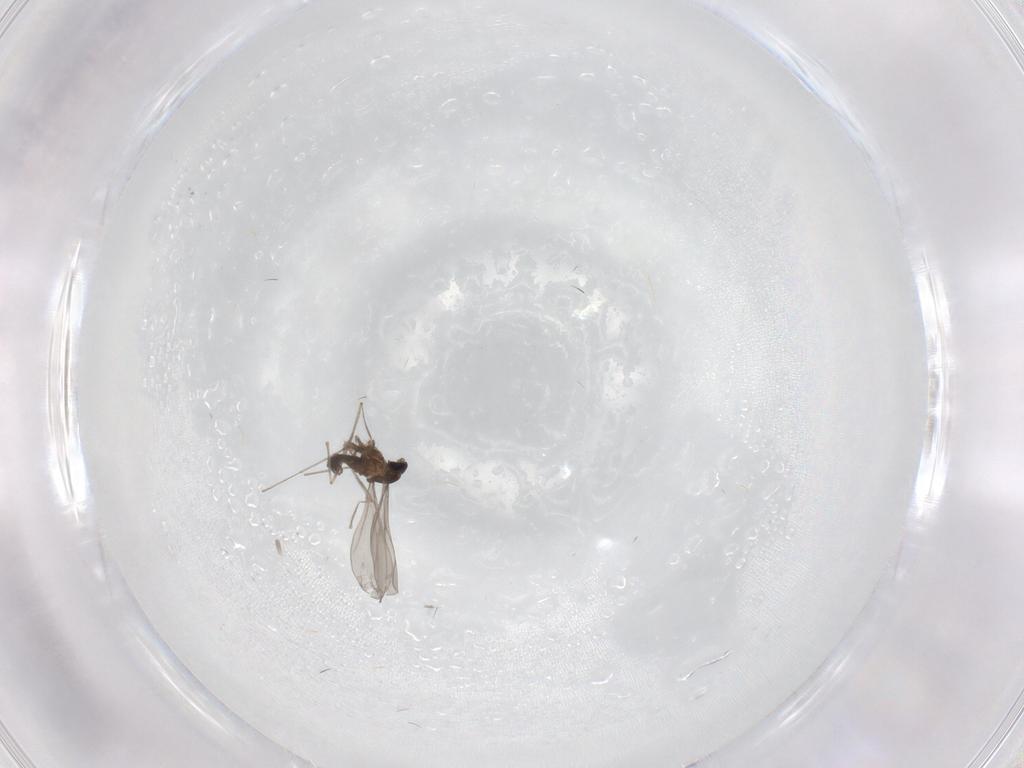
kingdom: Animalia
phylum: Arthropoda
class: Insecta
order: Diptera
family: Cecidomyiidae
